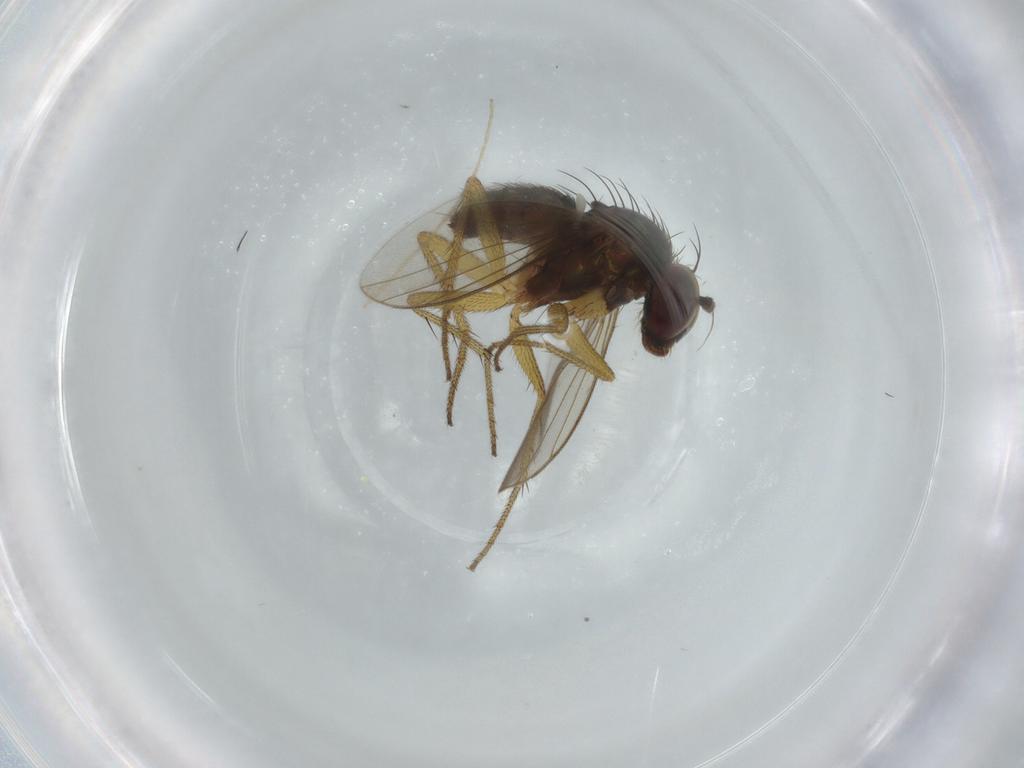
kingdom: Animalia
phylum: Arthropoda
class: Insecta
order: Diptera
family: Dolichopodidae
